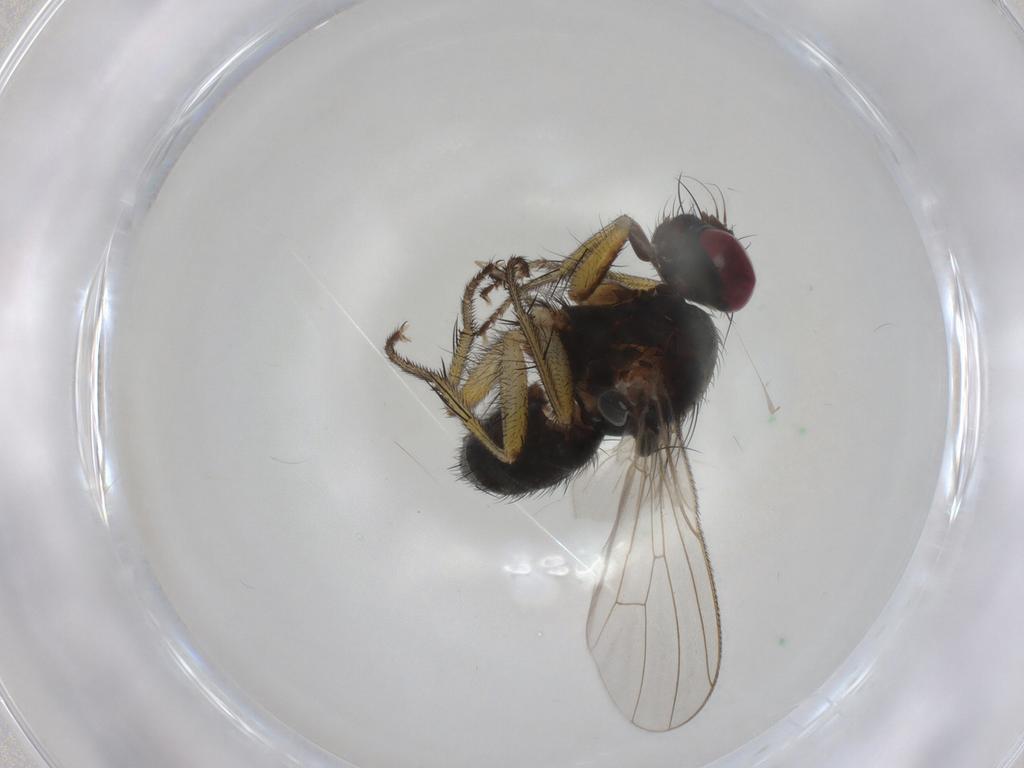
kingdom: Animalia
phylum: Arthropoda
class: Insecta
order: Diptera
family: Muscidae
